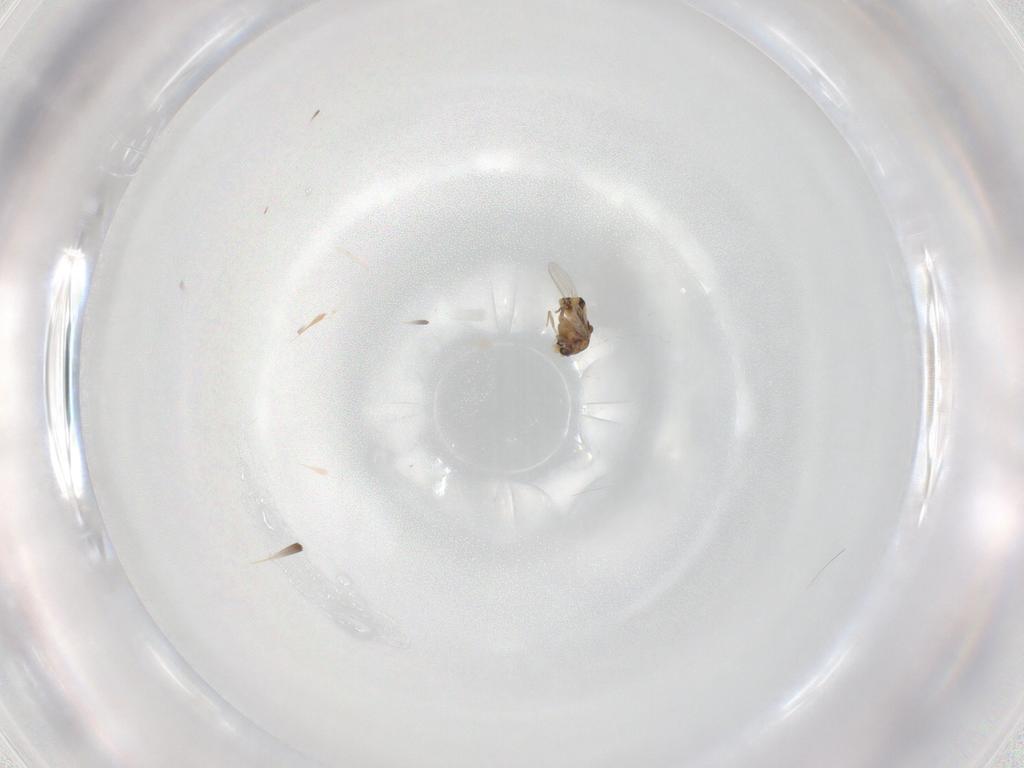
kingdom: Animalia
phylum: Arthropoda
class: Insecta
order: Diptera
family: Chironomidae
